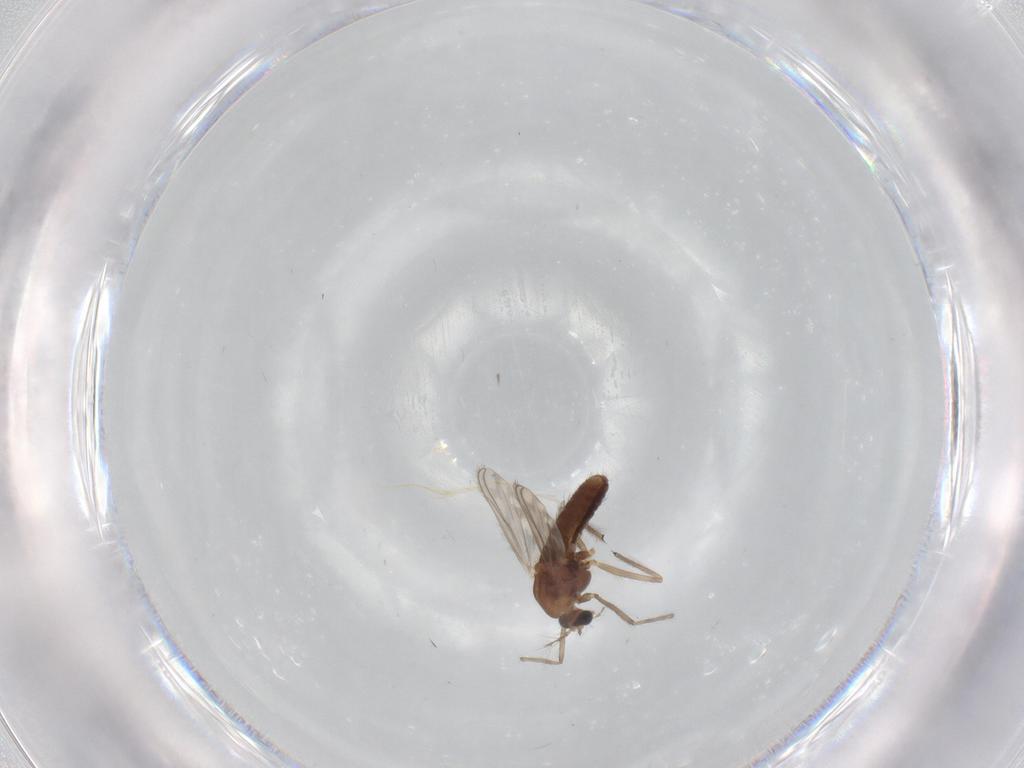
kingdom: Animalia
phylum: Arthropoda
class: Insecta
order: Diptera
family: Chironomidae
